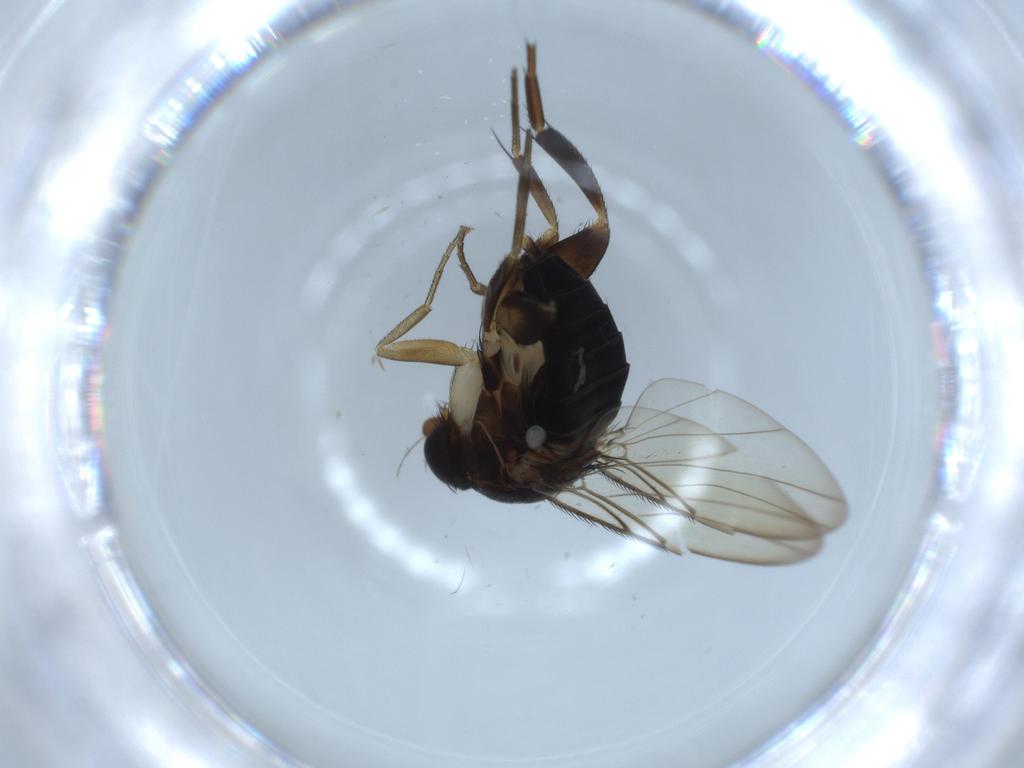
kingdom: Animalia
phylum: Arthropoda
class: Insecta
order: Diptera
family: Phoridae
